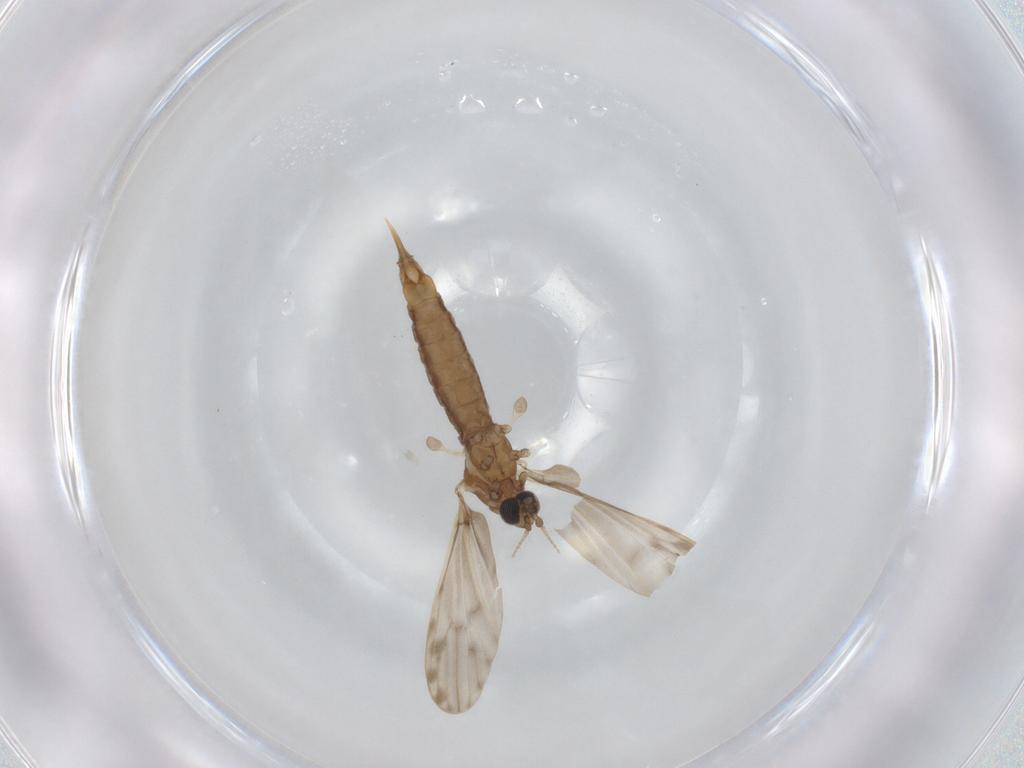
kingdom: Animalia
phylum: Arthropoda
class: Insecta
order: Diptera
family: Limoniidae
